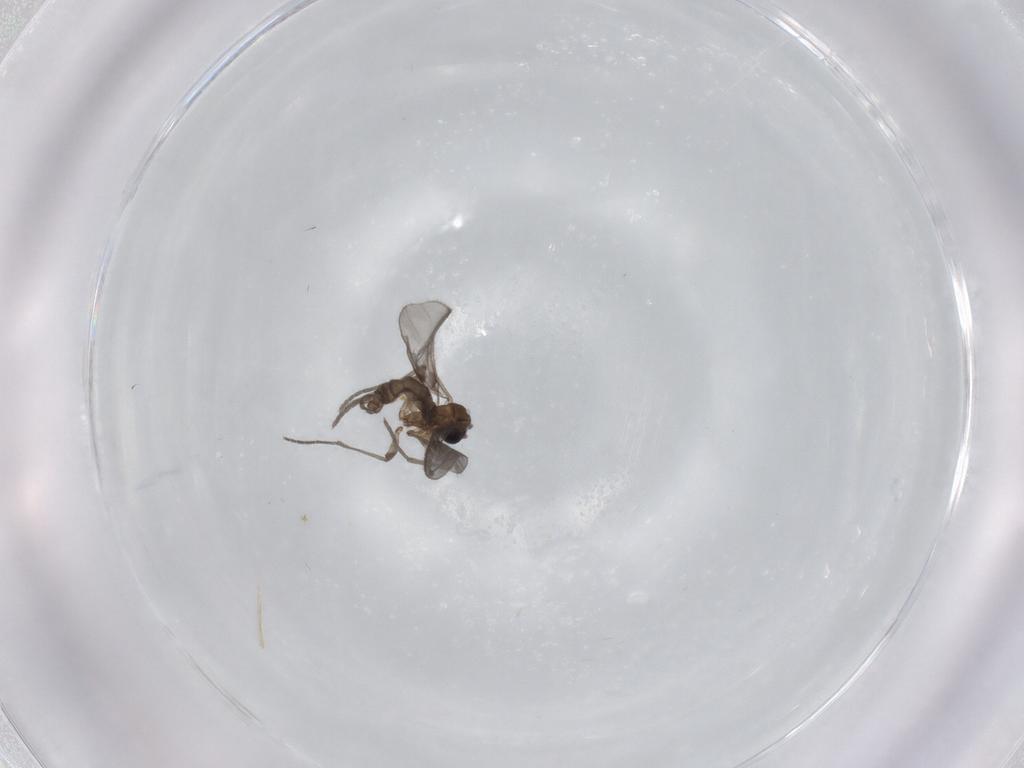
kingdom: Animalia
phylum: Arthropoda
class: Insecta
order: Diptera
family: Sciaridae
